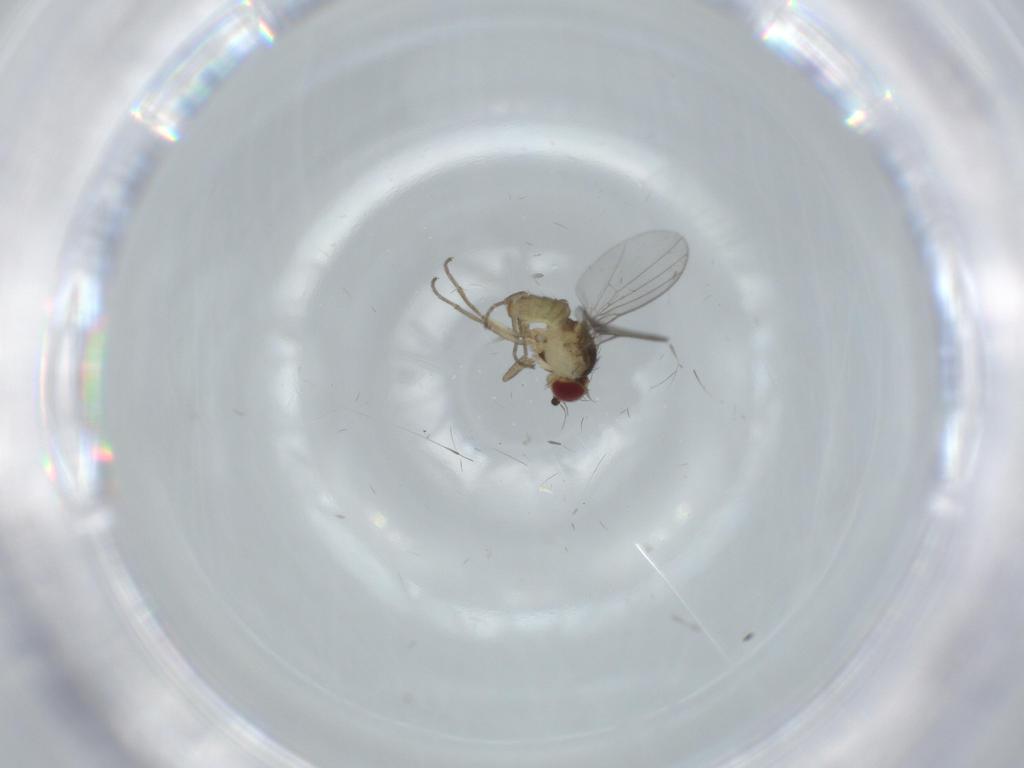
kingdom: Animalia
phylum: Arthropoda
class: Insecta
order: Diptera
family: Agromyzidae
